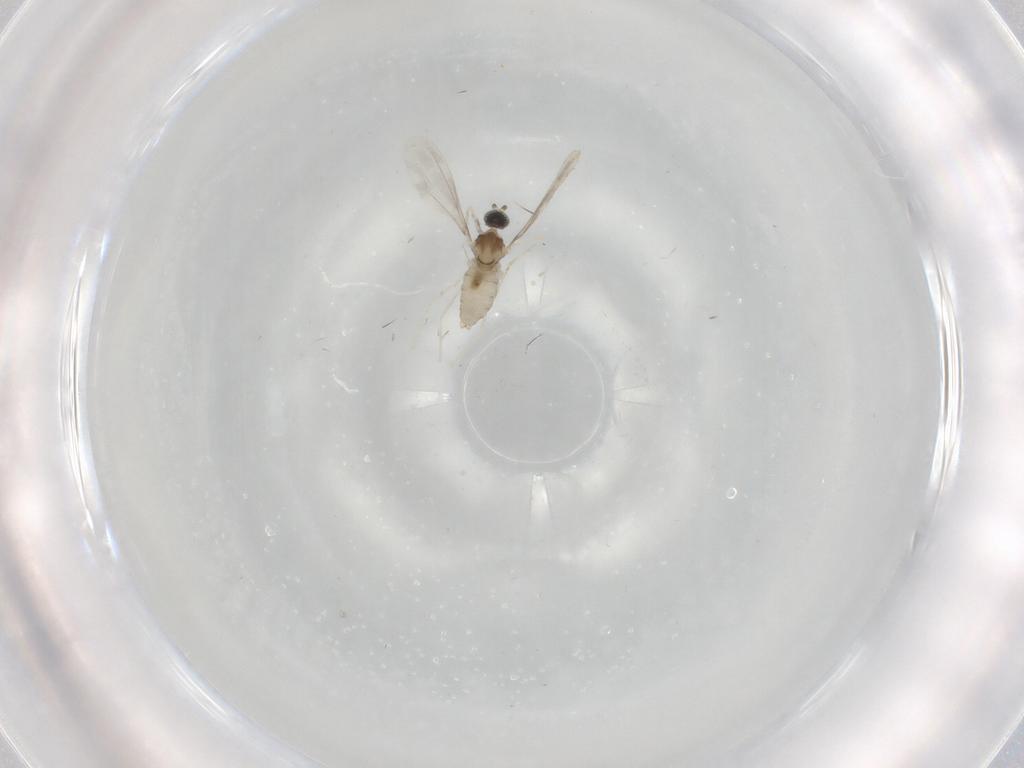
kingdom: Animalia
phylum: Arthropoda
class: Insecta
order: Diptera
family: Cecidomyiidae
